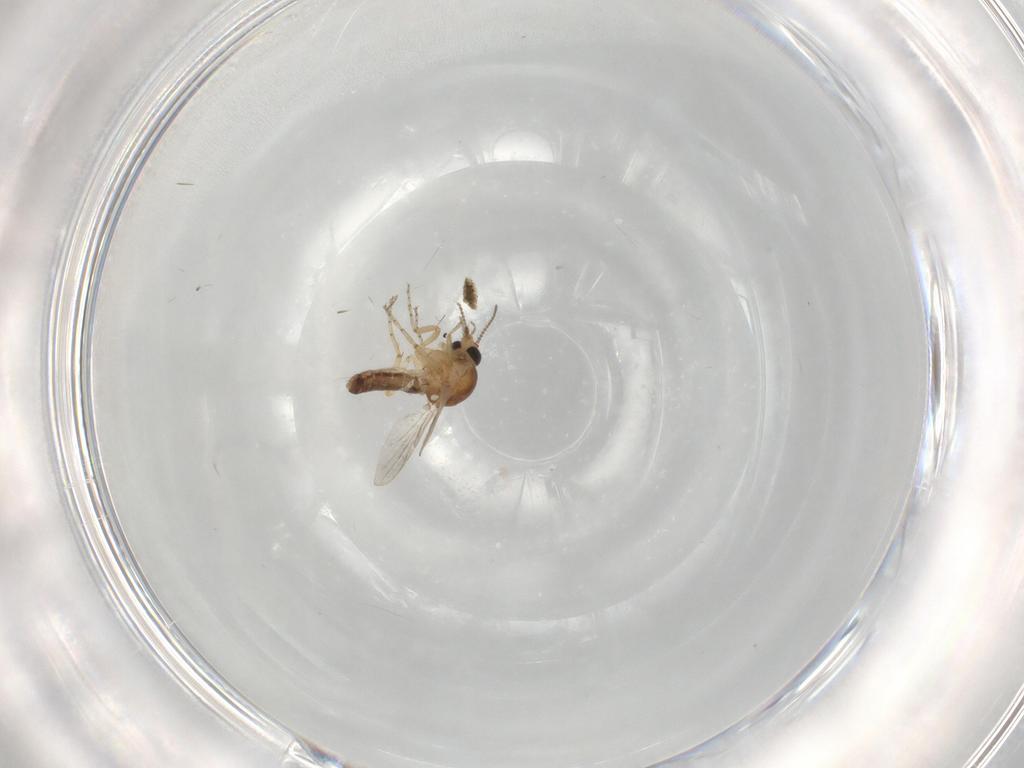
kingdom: Animalia
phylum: Arthropoda
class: Insecta
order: Diptera
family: Ceratopogonidae
